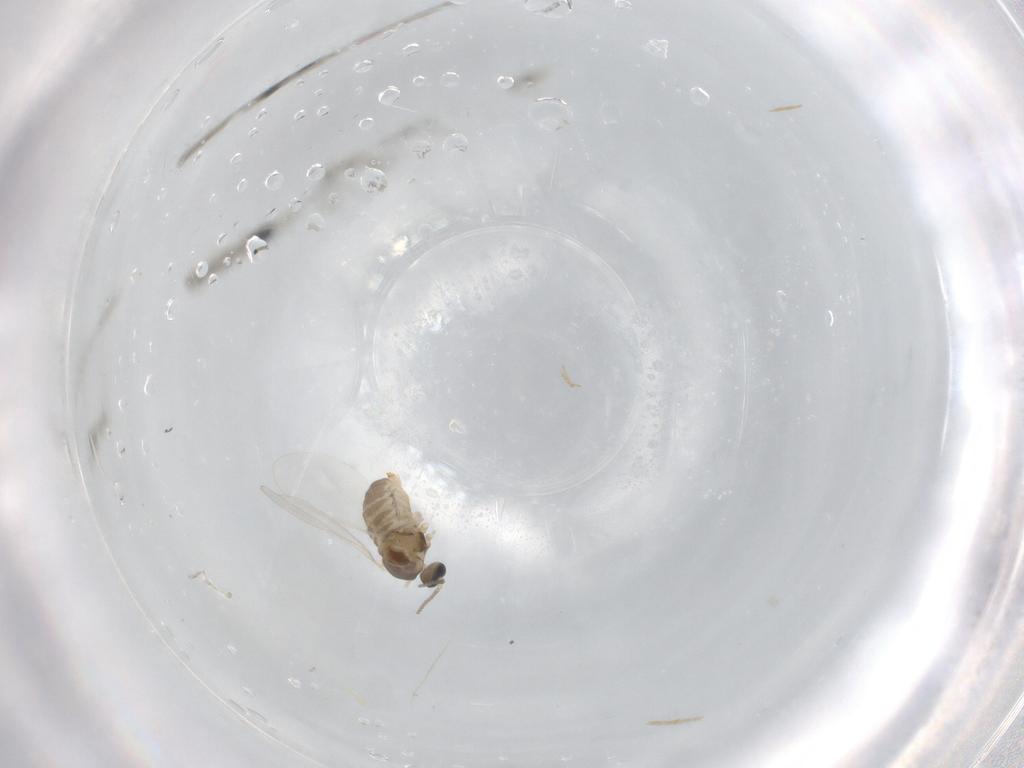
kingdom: Animalia
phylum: Arthropoda
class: Insecta
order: Diptera
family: Cecidomyiidae
